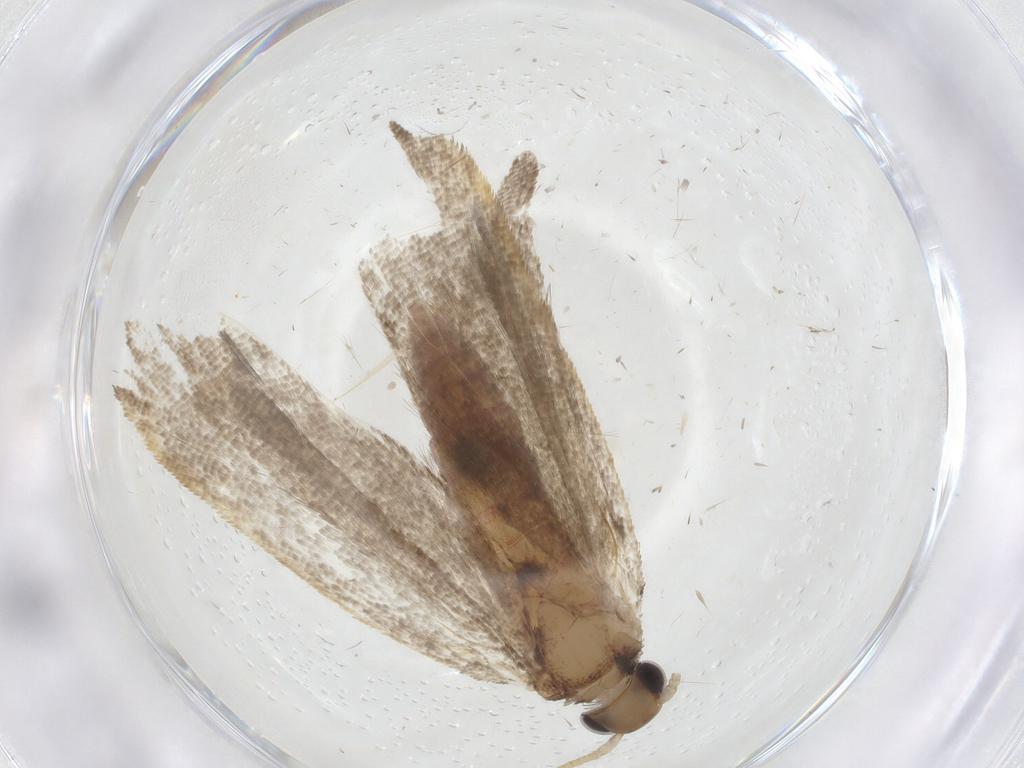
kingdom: Animalia
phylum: Arthropoda
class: Insecta
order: Lepidoptera
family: Lecithoceridae
